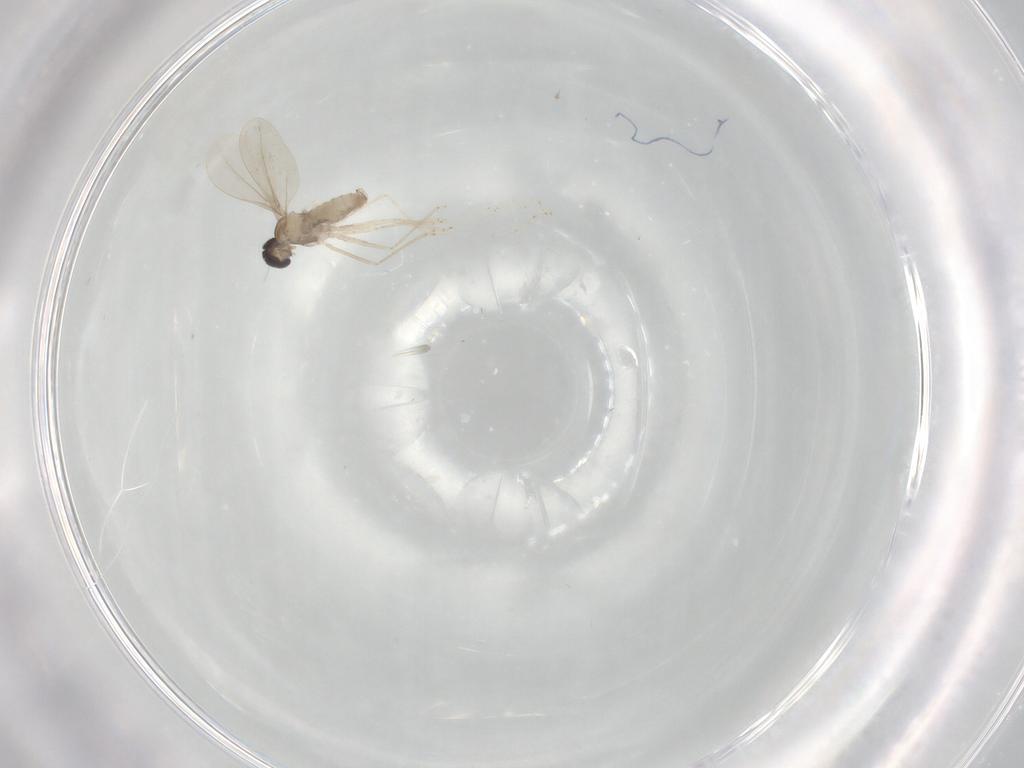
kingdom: Animalia
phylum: Arthropoda
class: Insecta
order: Diptera
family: Cecidomyiidae
